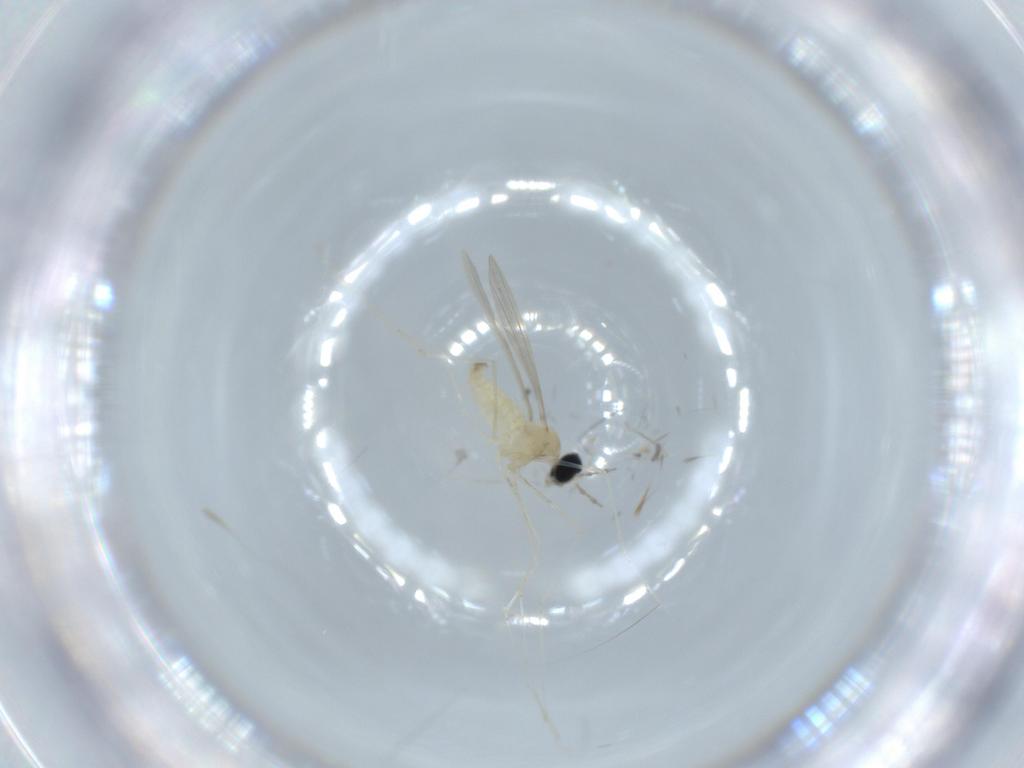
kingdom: Animalia
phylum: Arthropoda
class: Insecta
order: Diptera
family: Cecidomyiidae
